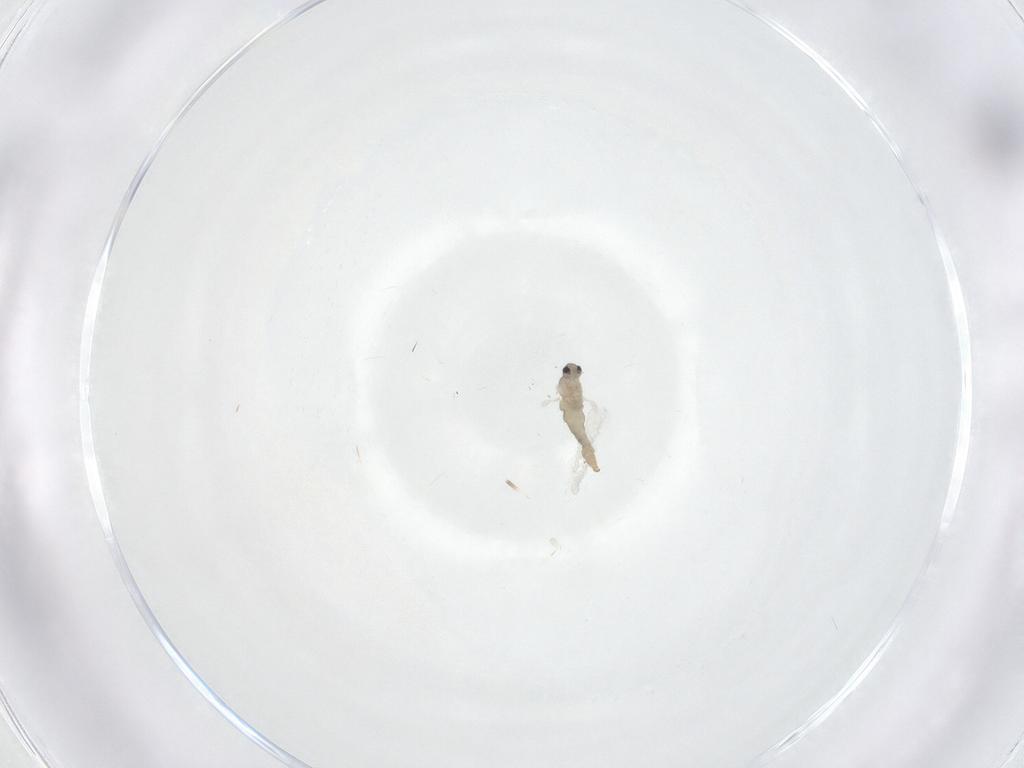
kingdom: Animalia
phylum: Arthropoda
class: Insecta
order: Diptera
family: Cecidomyiidae
